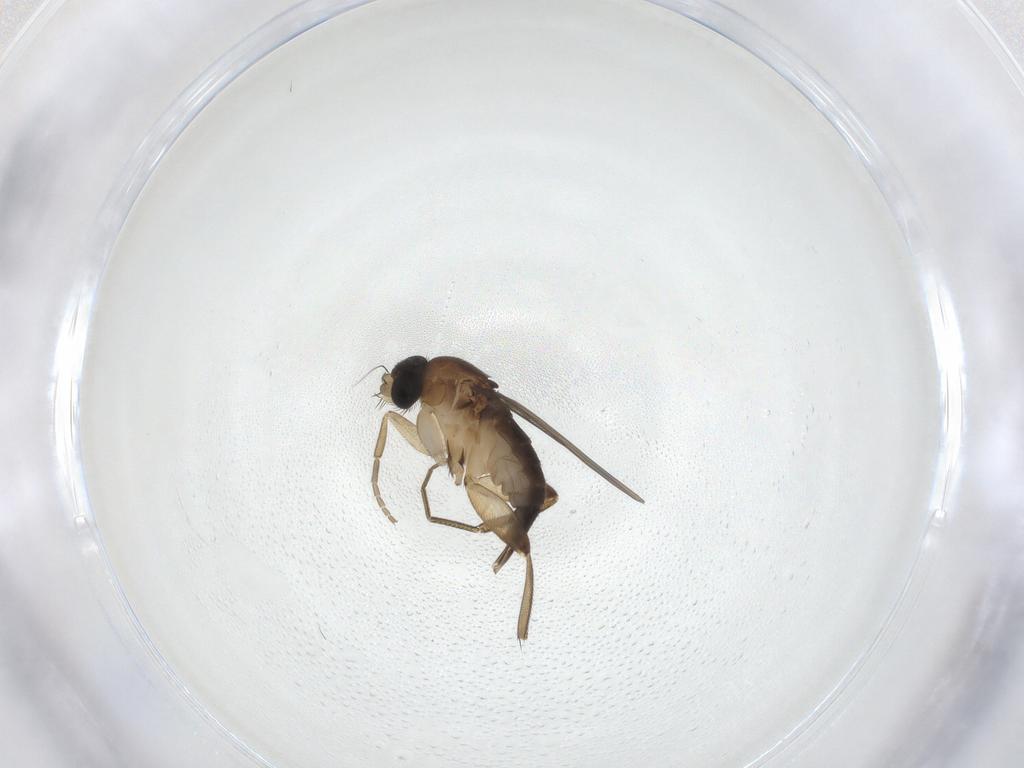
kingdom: Animalia
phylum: Arthropoda
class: Insecta
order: Diptera
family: Phoridae
